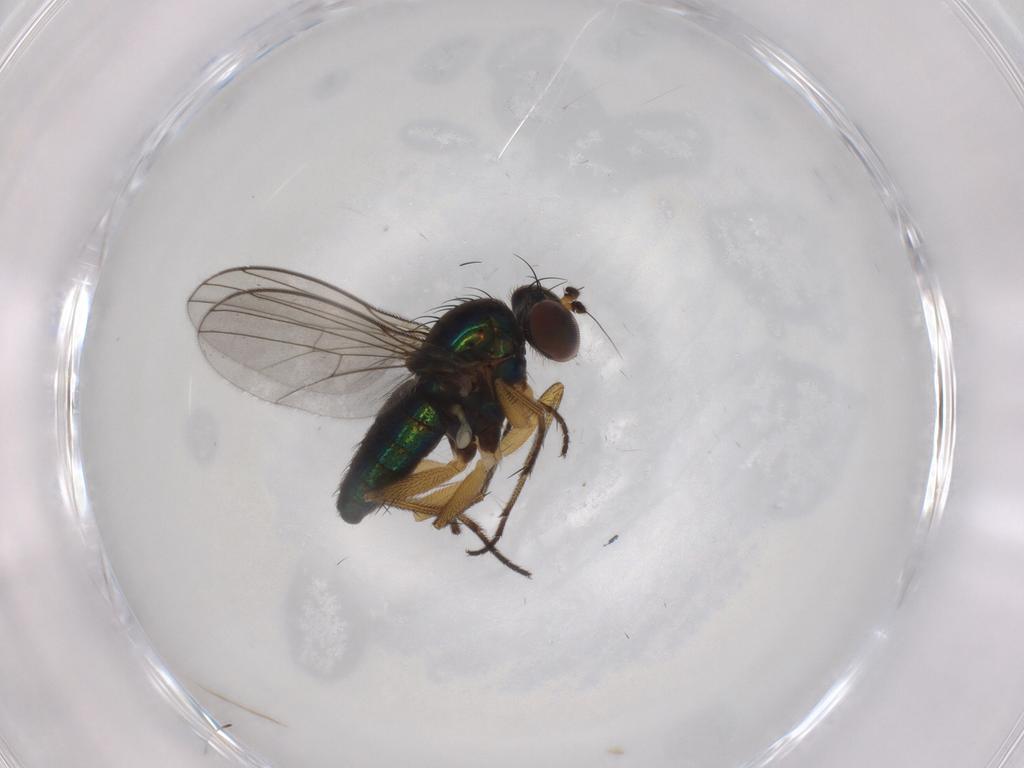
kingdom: Animalia
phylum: Arthropoda
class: Insecta
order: Diptera
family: Dolichopodidae
